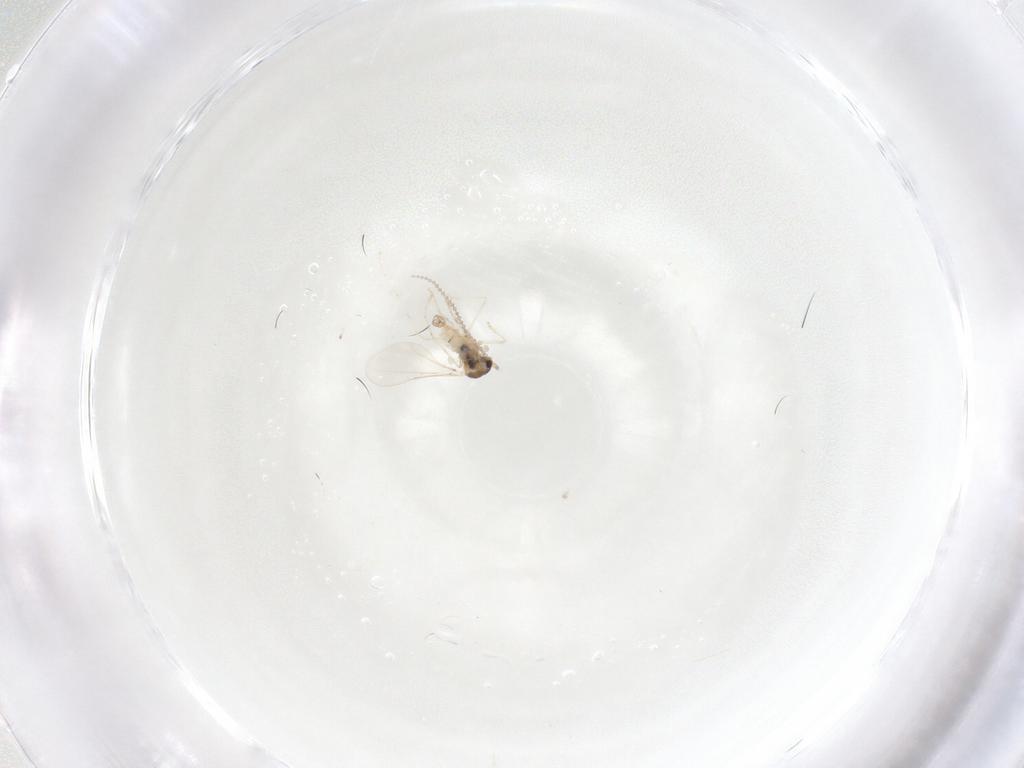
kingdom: Animalia
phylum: Arthropoda
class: Insecta
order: Diptera
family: Cecidomyiidae
